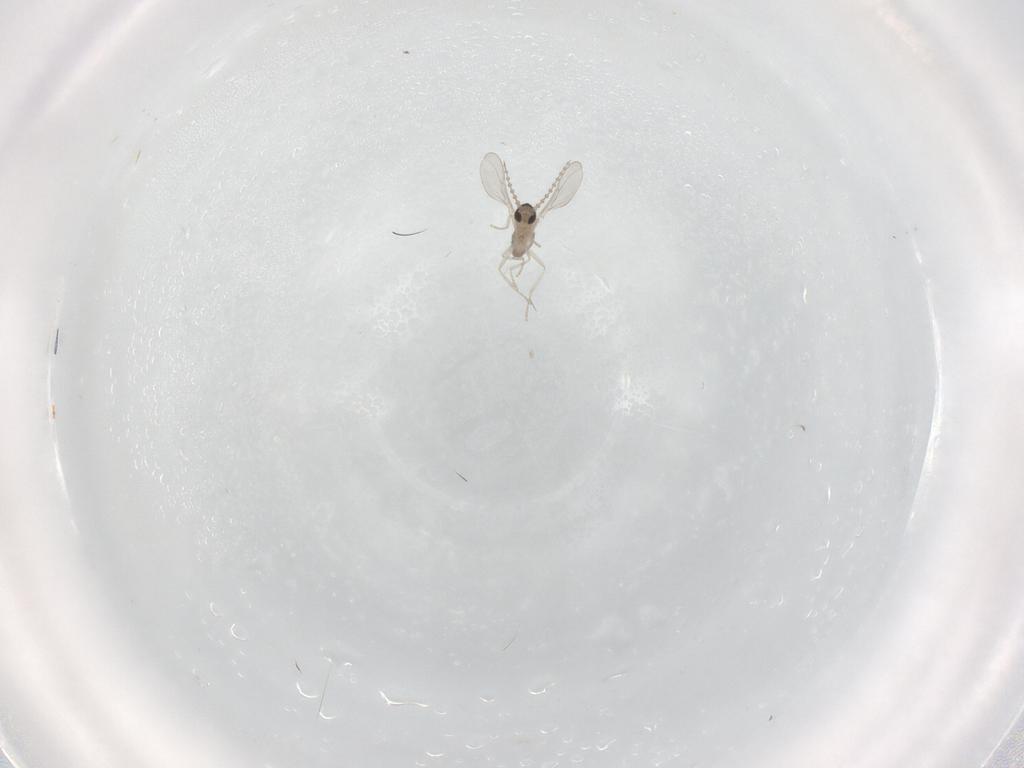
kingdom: Animalia
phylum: Arthropoda
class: Insecta
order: Diptera
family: Cecidomyiidae
